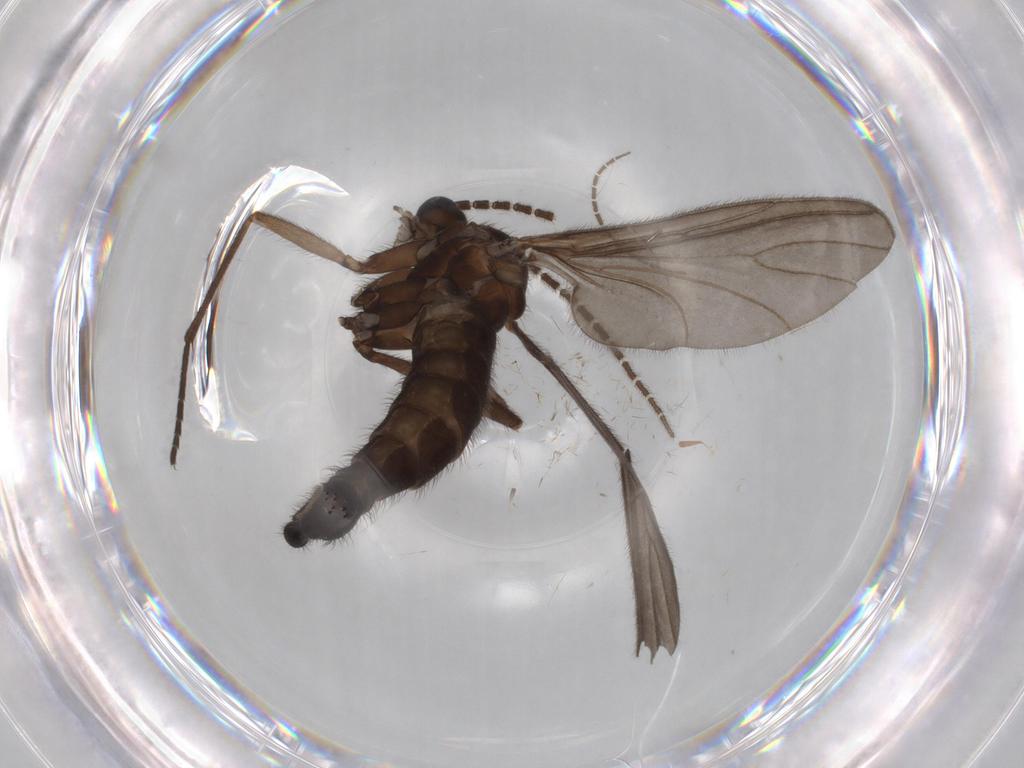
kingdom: Animalia
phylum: Arthropoda
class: Insecta
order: Diptera
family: Sciaridae
